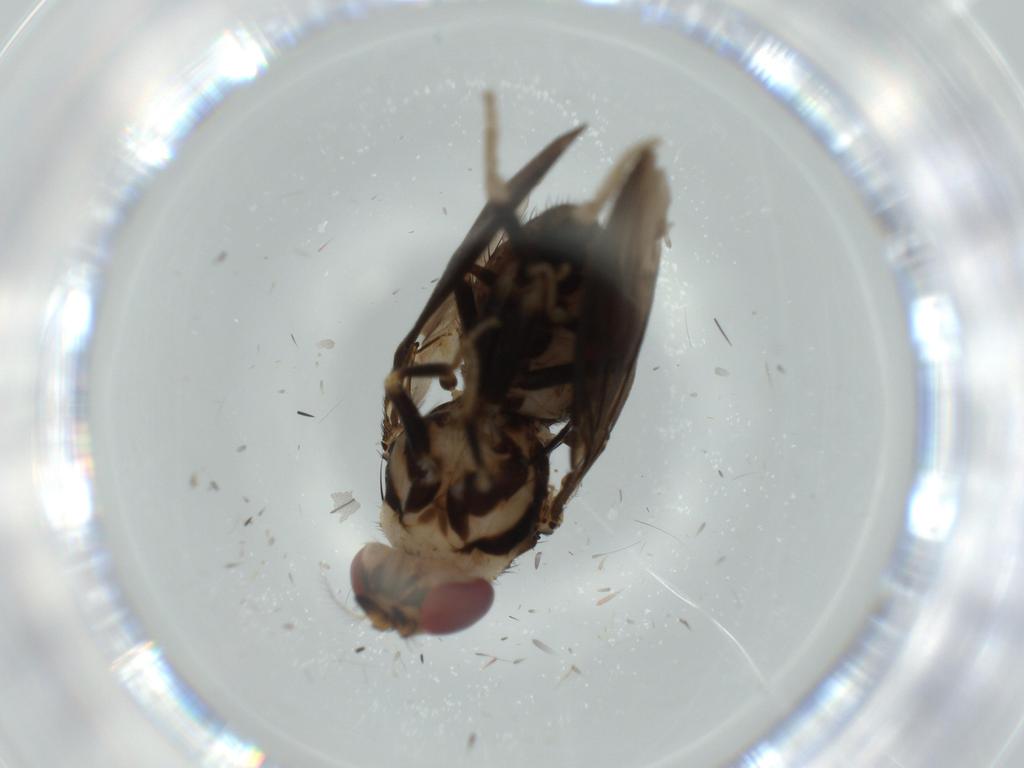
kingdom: Animalia
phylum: Arthropoda
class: Insecta
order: Diptera
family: Milichiidae
